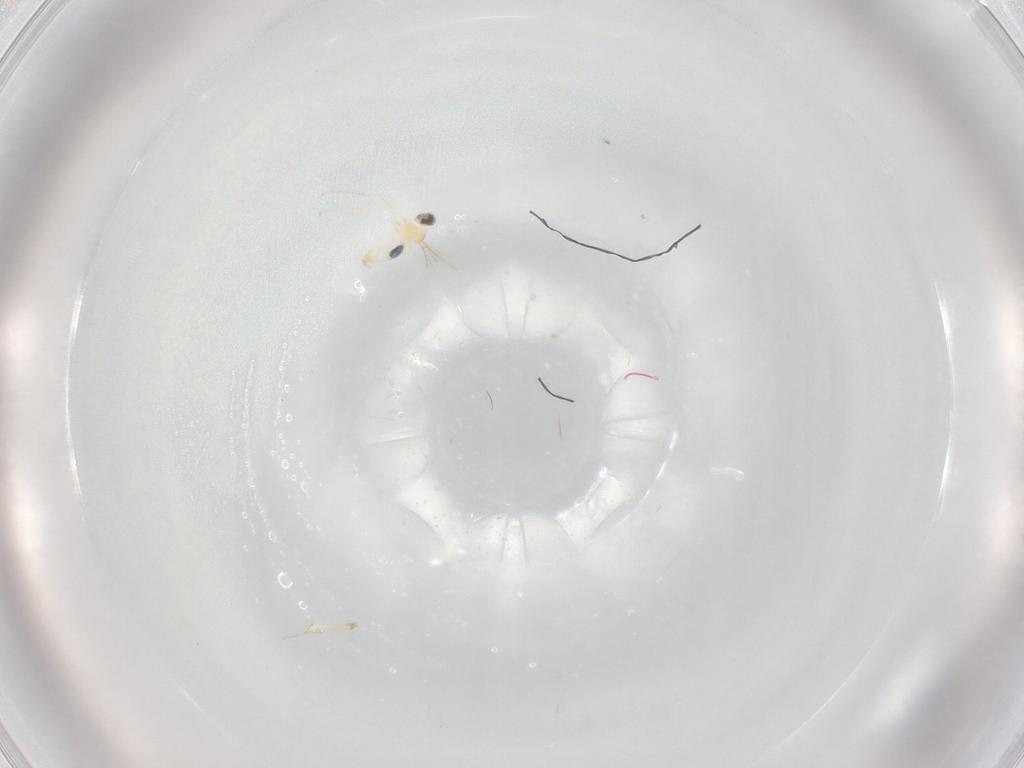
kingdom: Animalia
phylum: Arthropoda
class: Insecta
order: Diptera
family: Cecidomyiidae
